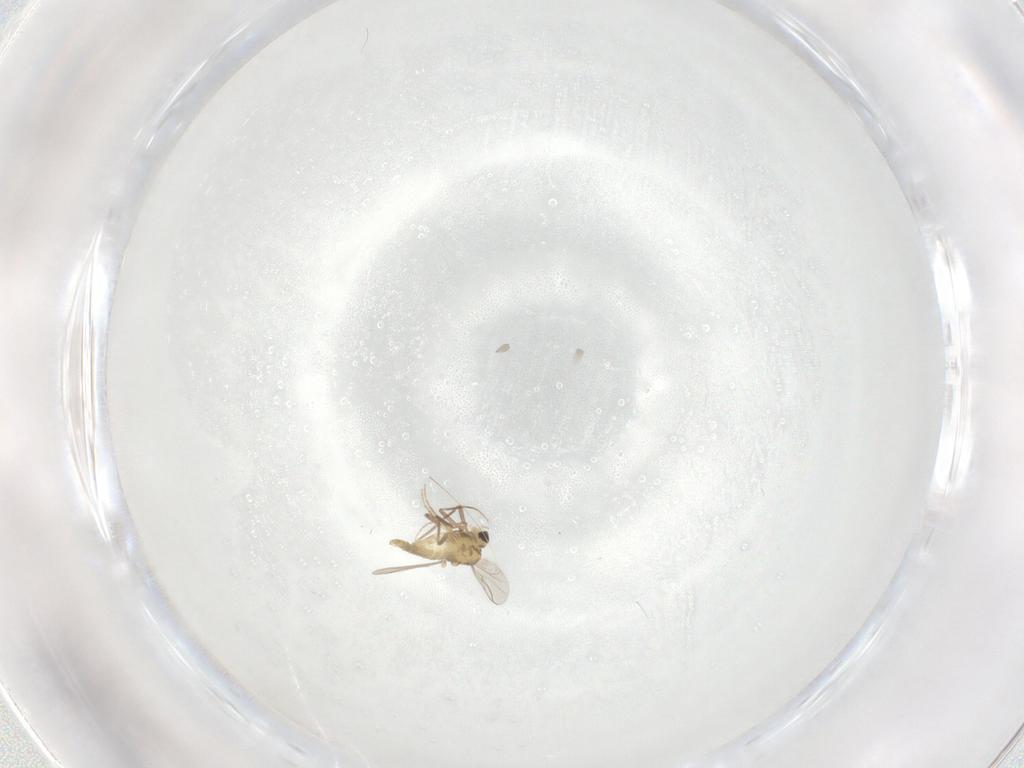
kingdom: Animalia
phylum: Arthropoda
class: Insecta
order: Diptera
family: Chironomidae
